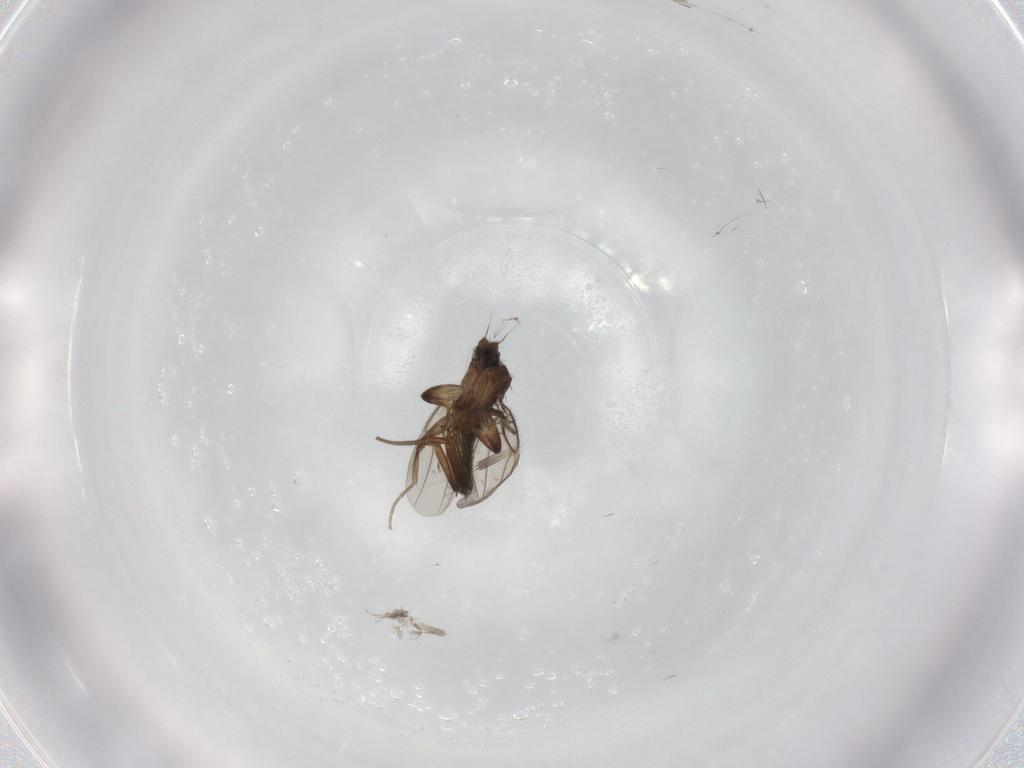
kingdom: Animalia
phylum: Arthropoda
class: Insecta
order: Diptera
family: Phoridae
